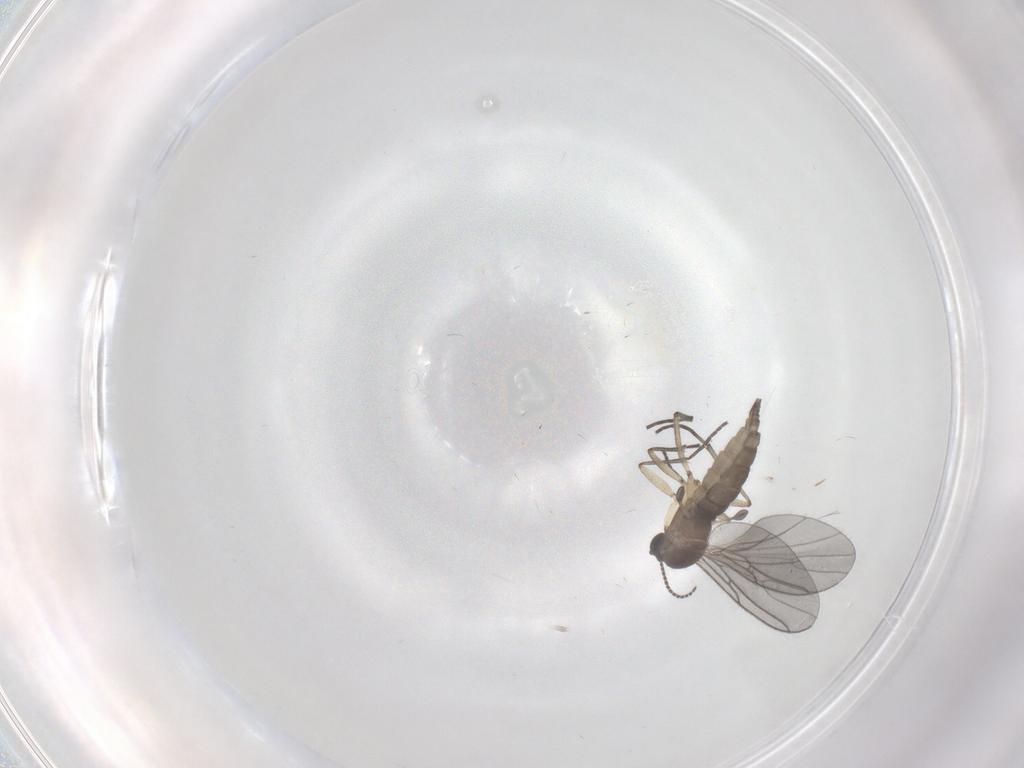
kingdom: Animalia
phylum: Arthropoda
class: Insecta
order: Diptera
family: Sciaridae
